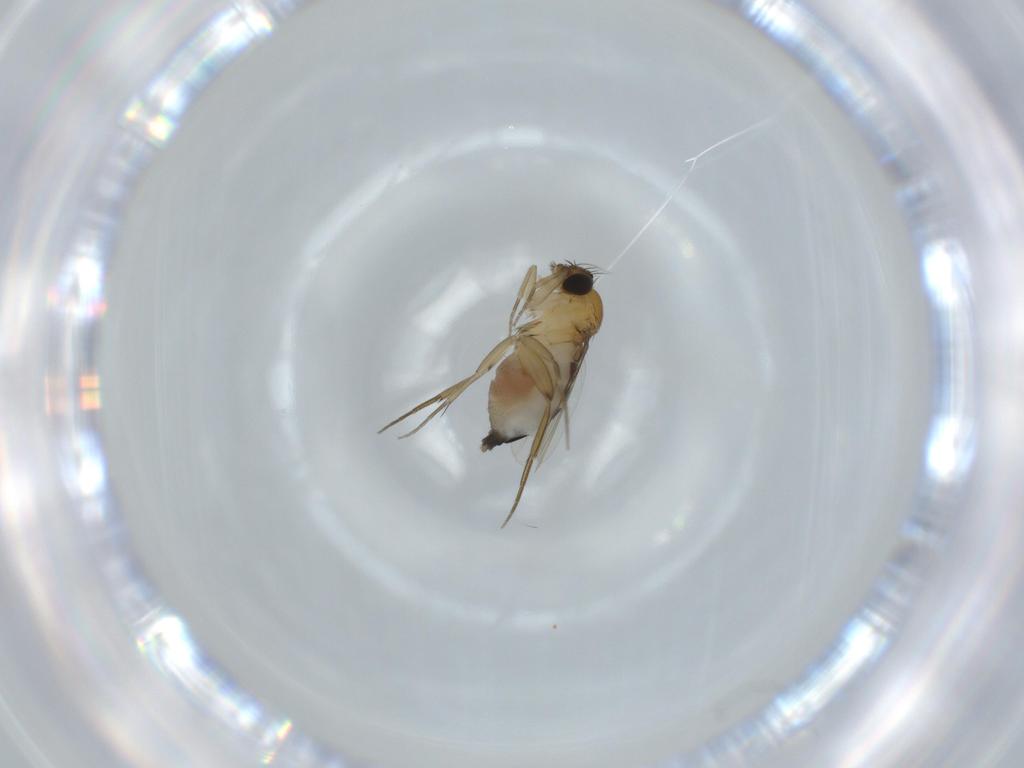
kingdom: Animalia
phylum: Arthropoda
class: Insecta
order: Diptera
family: Phoridae
